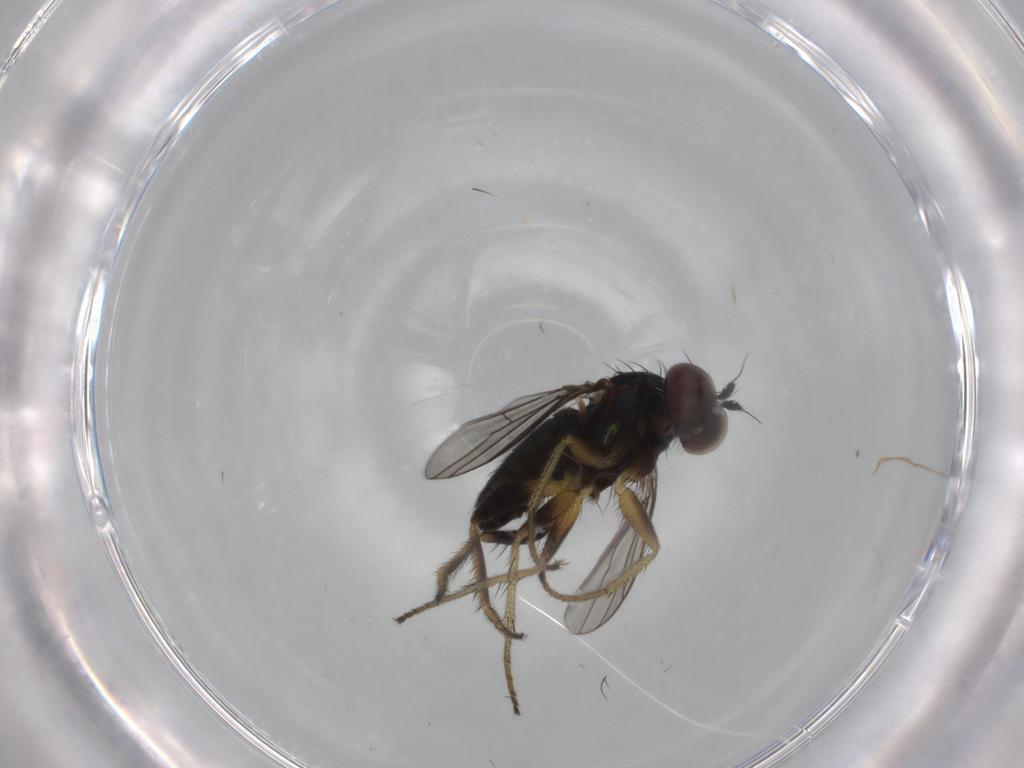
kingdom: Animalia
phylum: Arthropoda
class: Insecta
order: Diptera
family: Dolichopodidae
